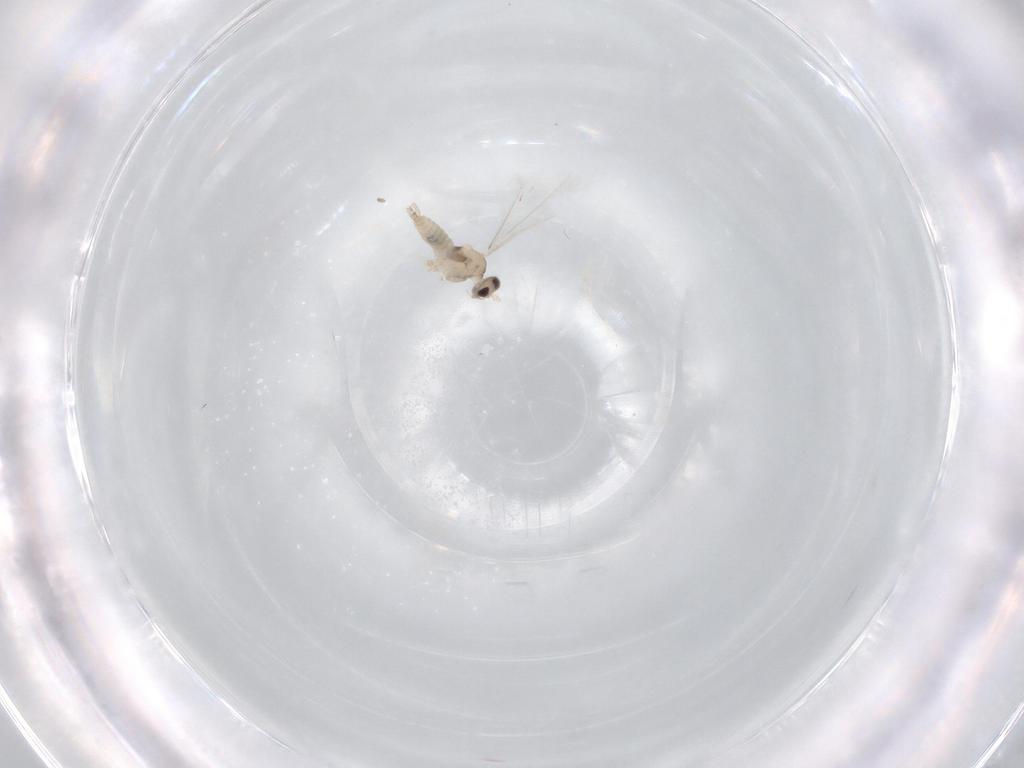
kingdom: Animalia
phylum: Arthropoda
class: Insecta
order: Diptera
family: Cecidomyiidae
